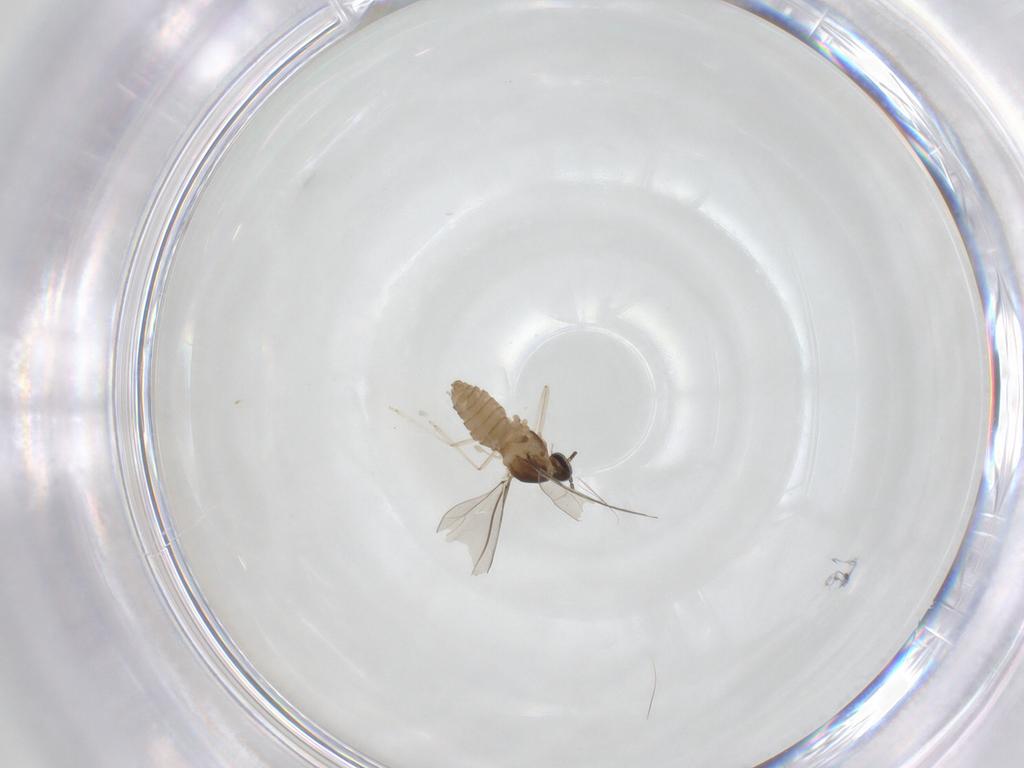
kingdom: Animalia
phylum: Arthropoda
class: Insecta
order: Diptera
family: Cecidomyiidae
